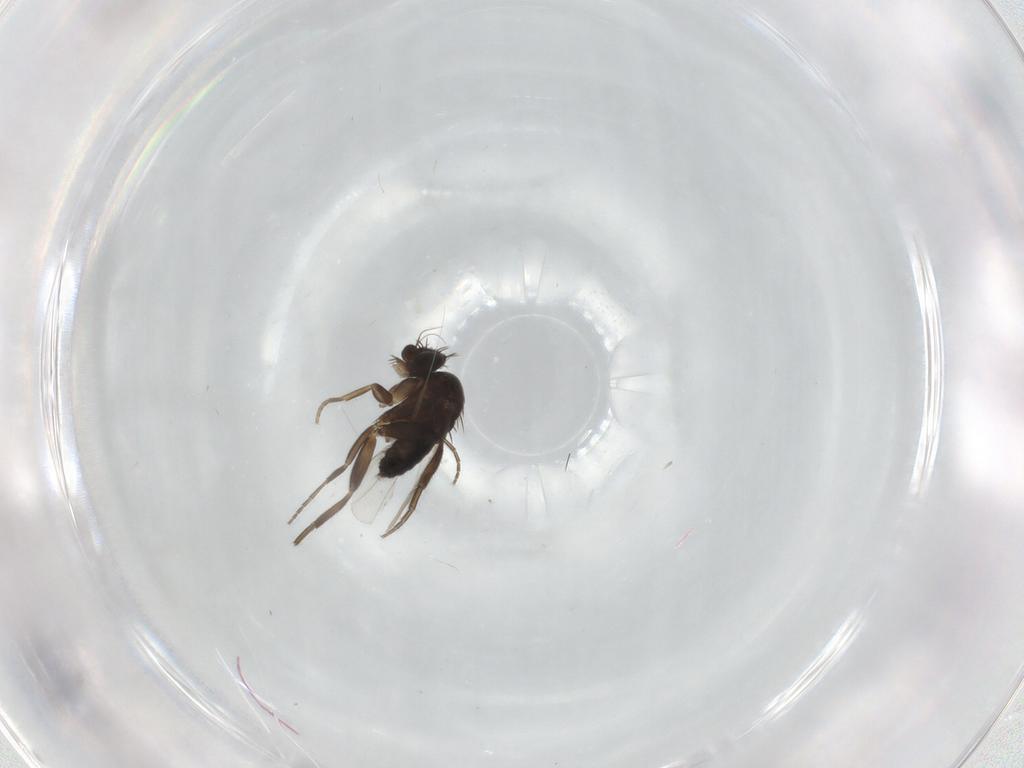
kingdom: Animalia
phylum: Arthropoda
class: Insecta
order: Diptera
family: Phoridae
